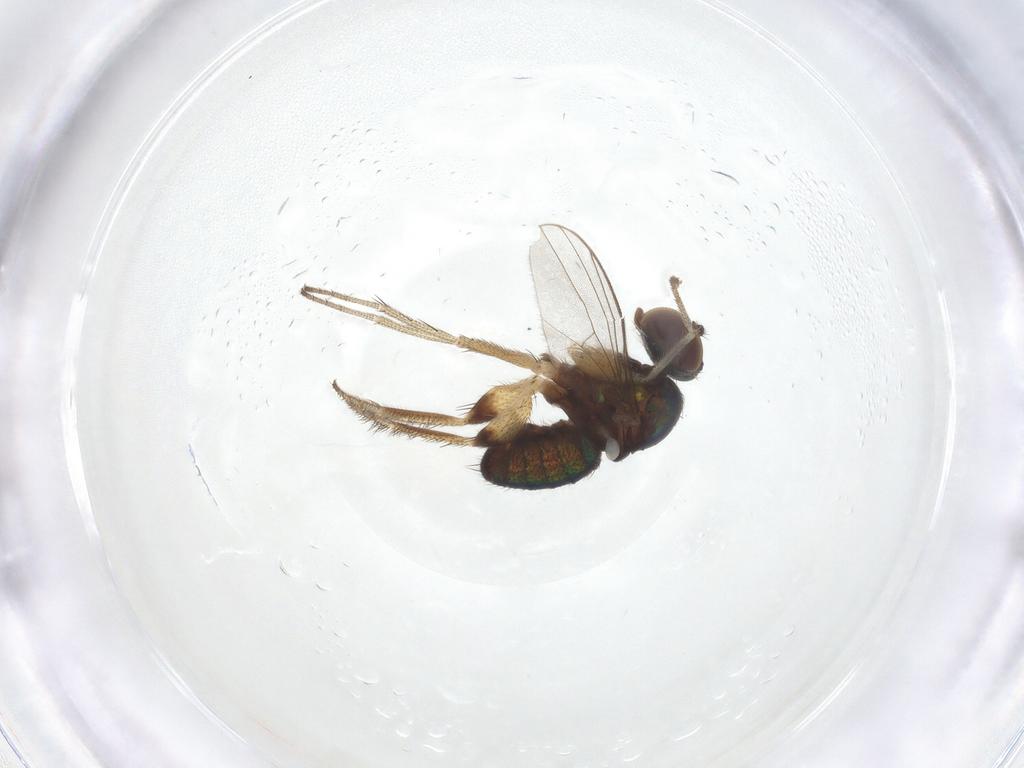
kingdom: Animalia
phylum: Arthropoda
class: Insecta
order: Diptera
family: Dolichopodidae
